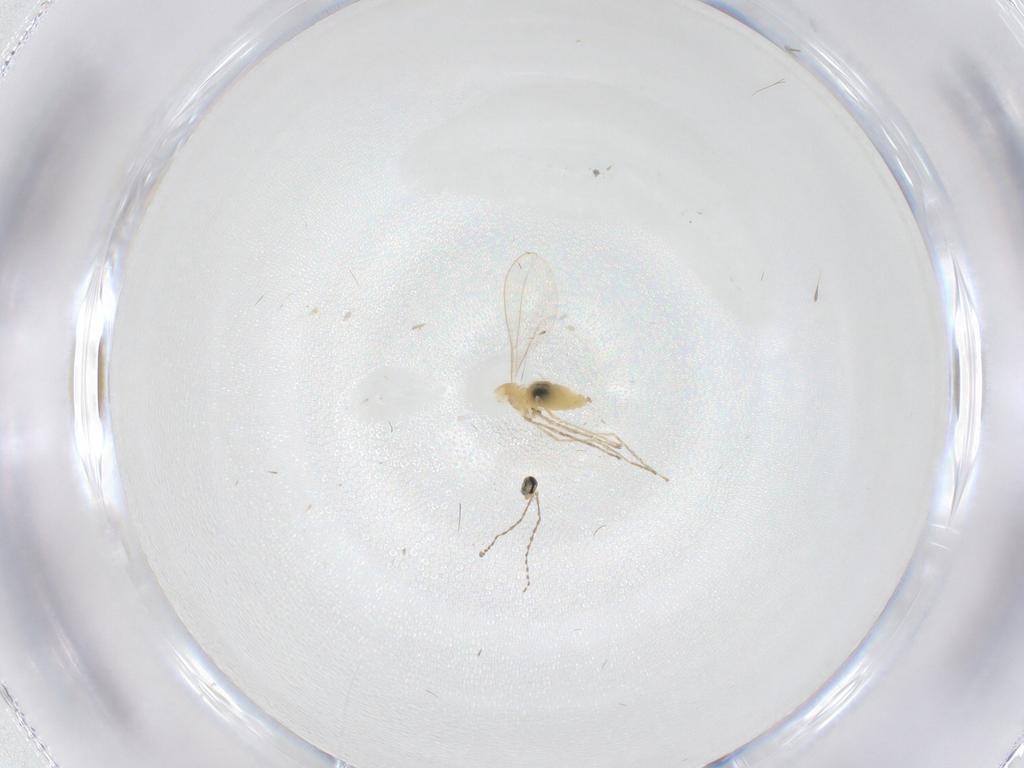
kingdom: Animalia
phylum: Arthropoda
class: Insecta
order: Diptera
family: Cecidomyiidae
